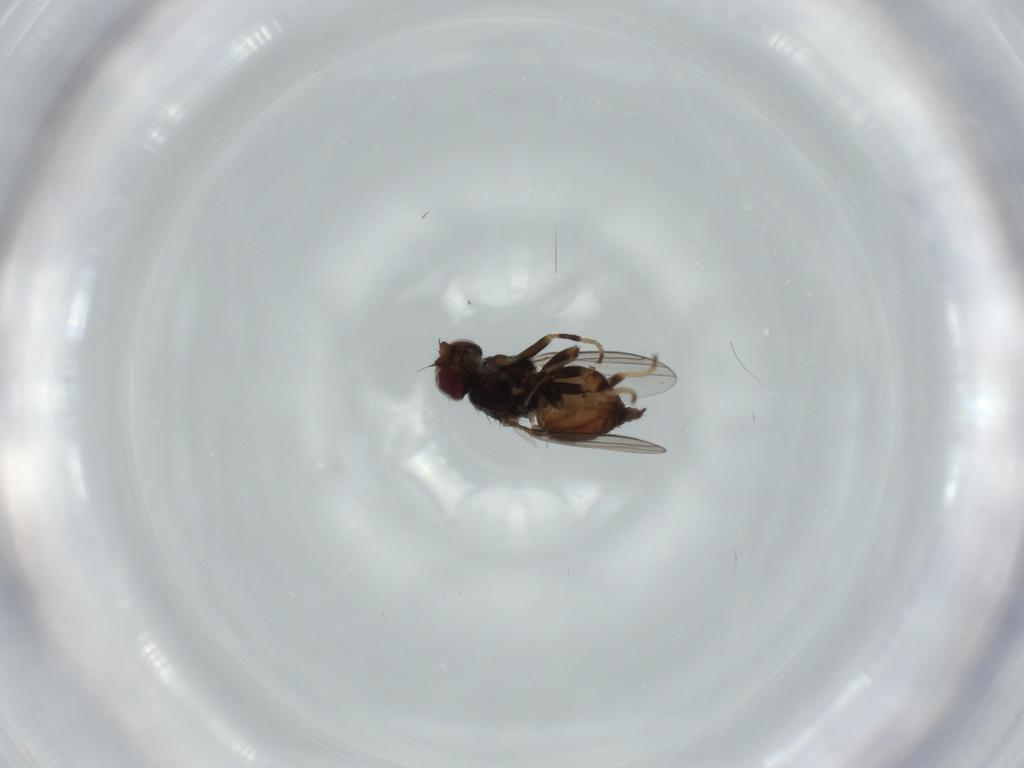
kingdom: Animalia
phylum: Arthropoda
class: Insecta
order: Diptera
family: Chloropidae
